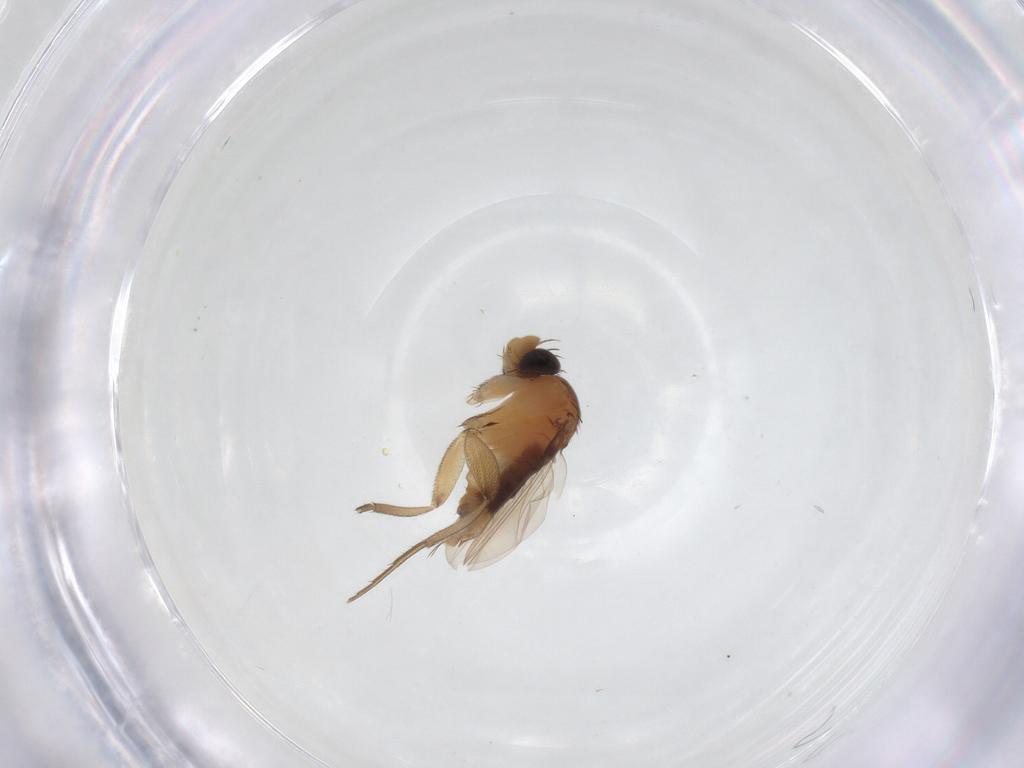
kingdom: Animalia
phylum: Arthropoda
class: Insecta
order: Diptera
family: Phoridae
